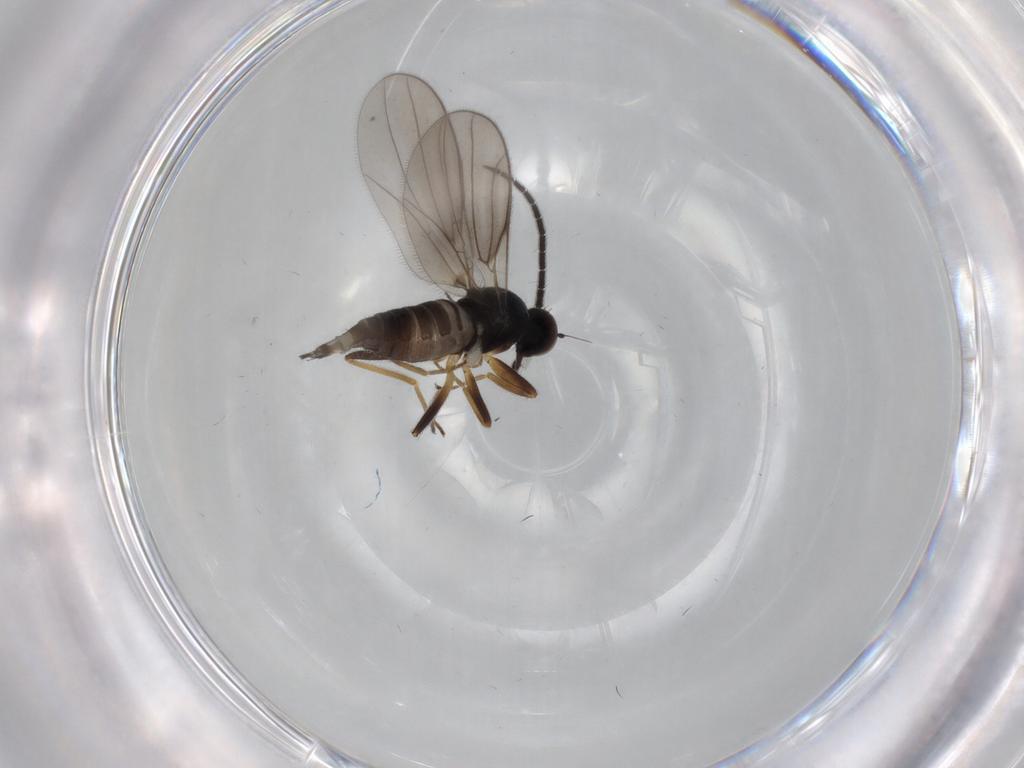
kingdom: Animalia
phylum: Arthropoda
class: Insecta
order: Diptera
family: Hybotidae
